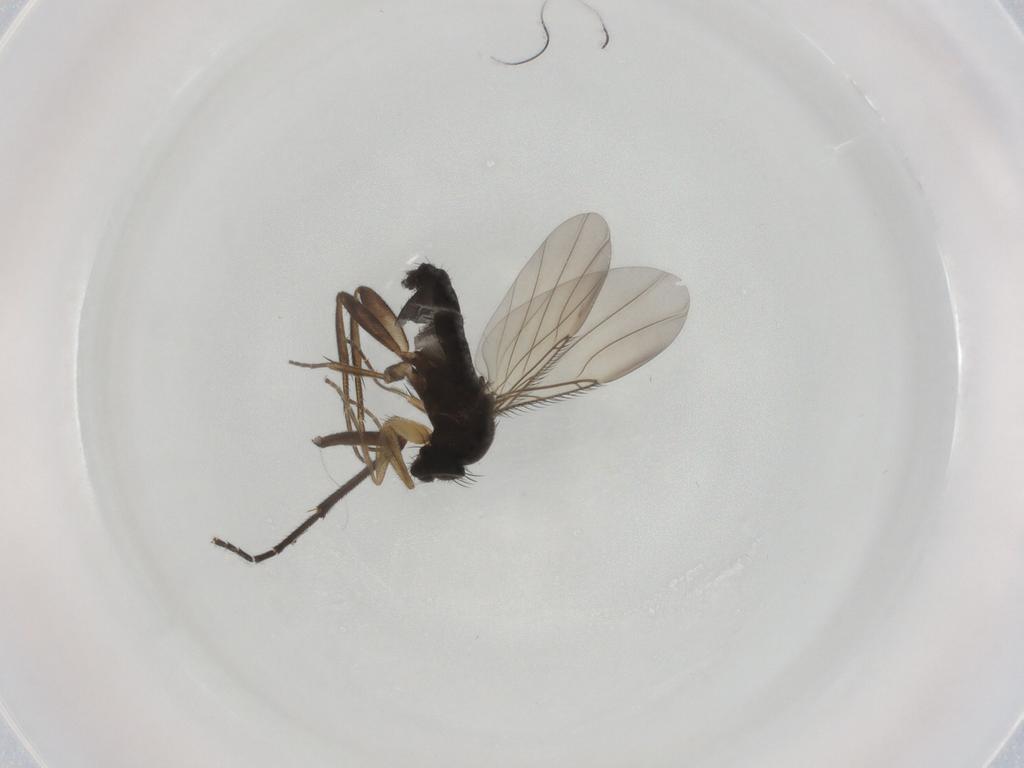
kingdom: Animalia
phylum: Arthropoda
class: Insecta
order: Diptera
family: Phoridae
